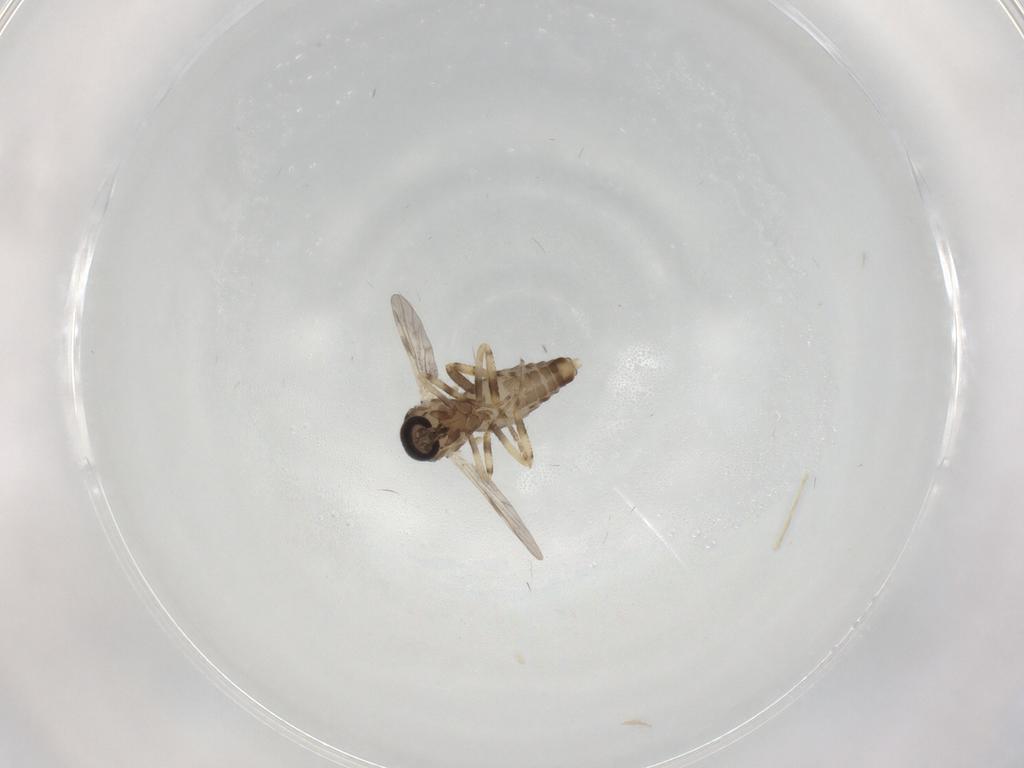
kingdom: Animalia
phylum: Arthropoda
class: Insecta
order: Diptera
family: Ceratopogonidae
